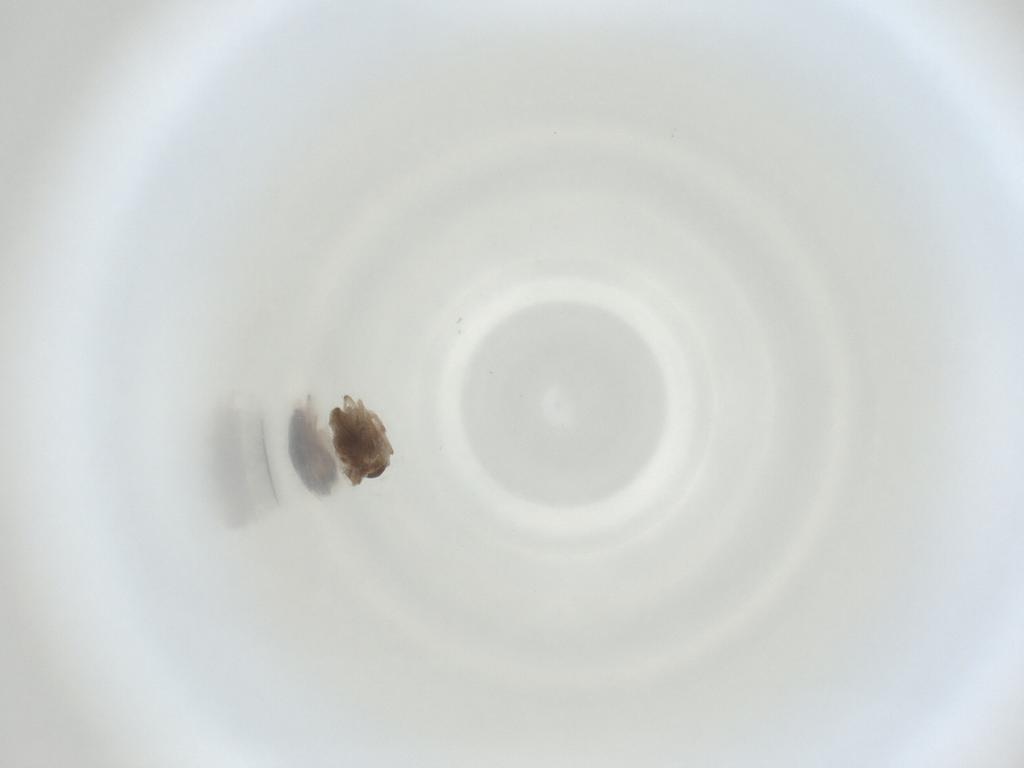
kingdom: Animalia
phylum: Arthropoda
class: Insecta
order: Diptera
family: Cecidomyiidae
